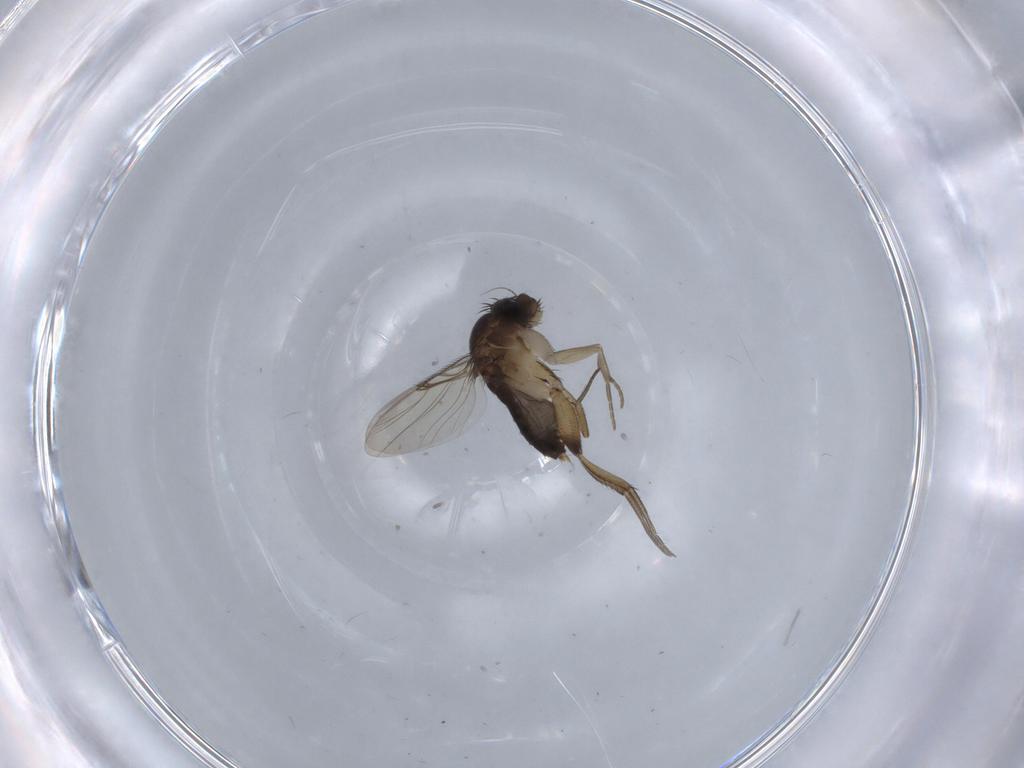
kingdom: Animalia
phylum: Arthropoda
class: Insecta
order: Diptera
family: Phoridae
